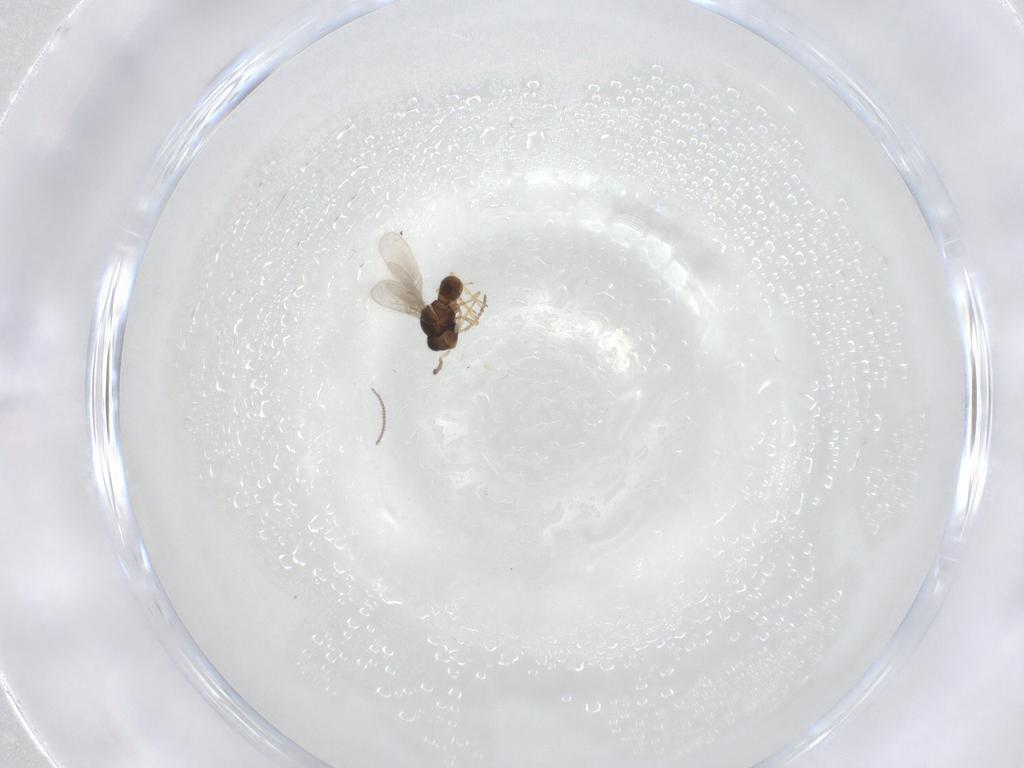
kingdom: Animalia
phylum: Arthropoda
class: Insecta
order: Hymenoptera
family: Scelionidae
